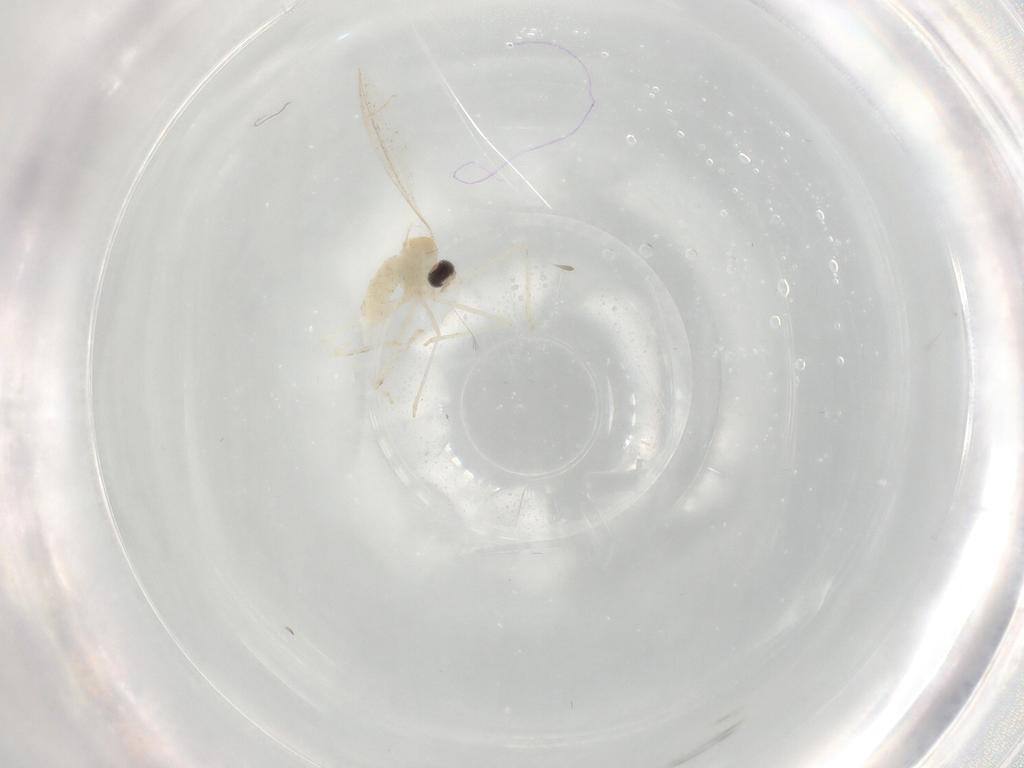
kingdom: Animalia
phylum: Arthropoda
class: Insecta
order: Diptera
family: Cecidomyiidae
